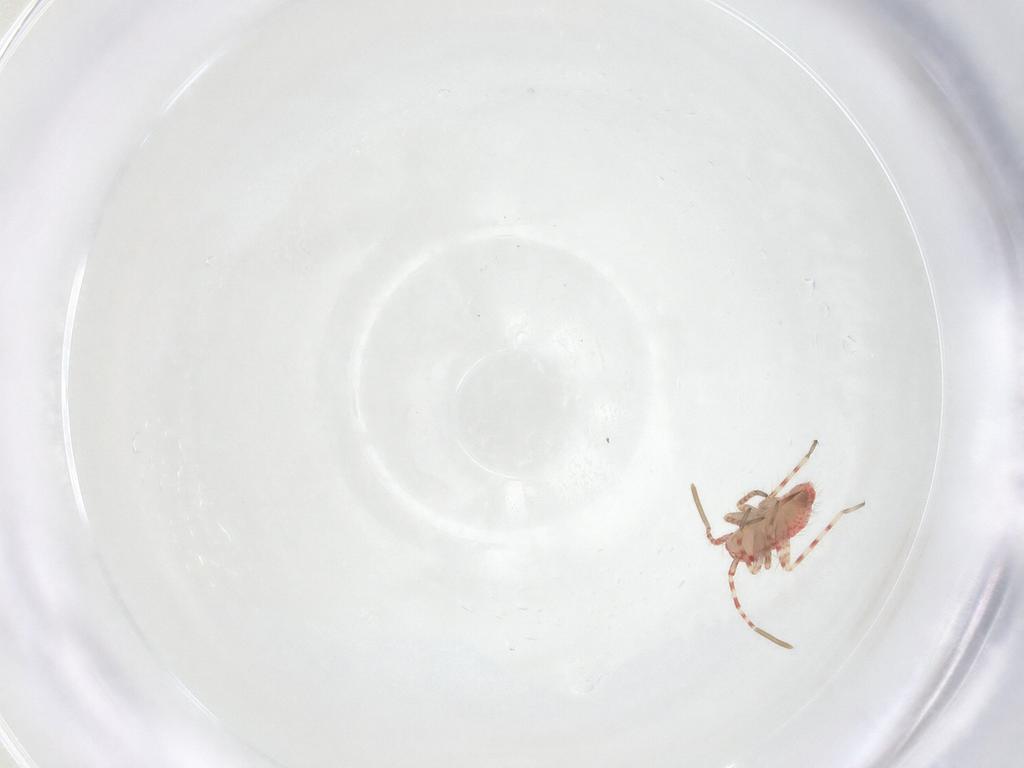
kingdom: Animalia
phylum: Arthropoda
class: Insecta
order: Hemiptera
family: Miridae
